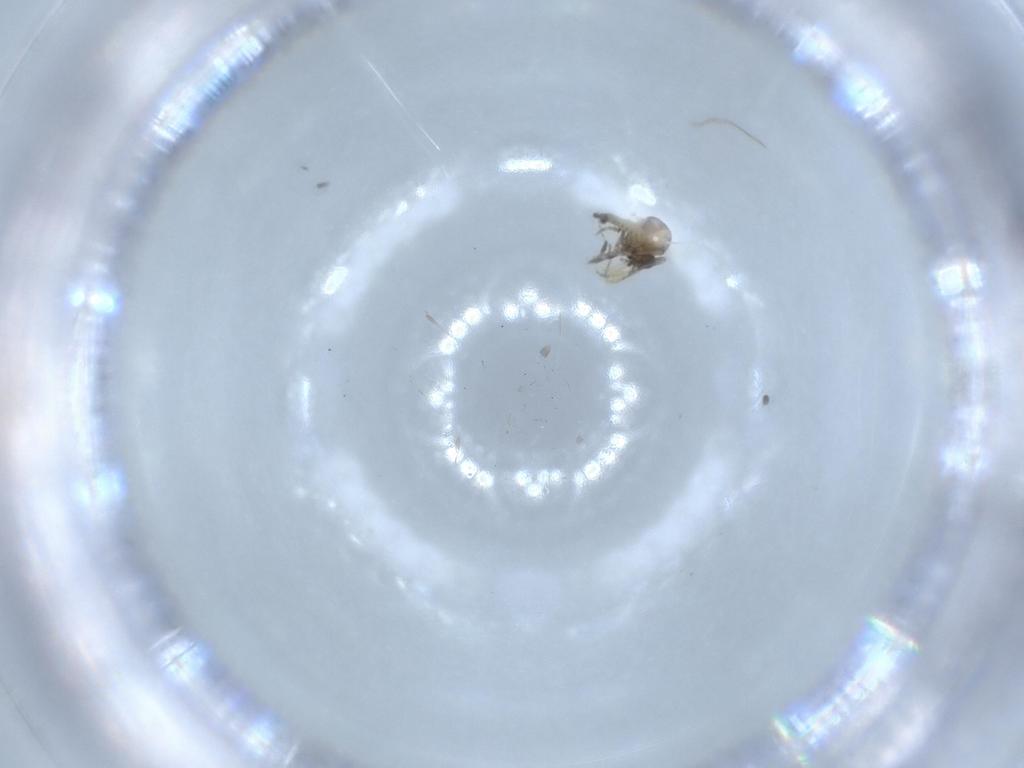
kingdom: Animalia
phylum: Arthropoda
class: Insecta
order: Diptera
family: Ceratopogonidae
